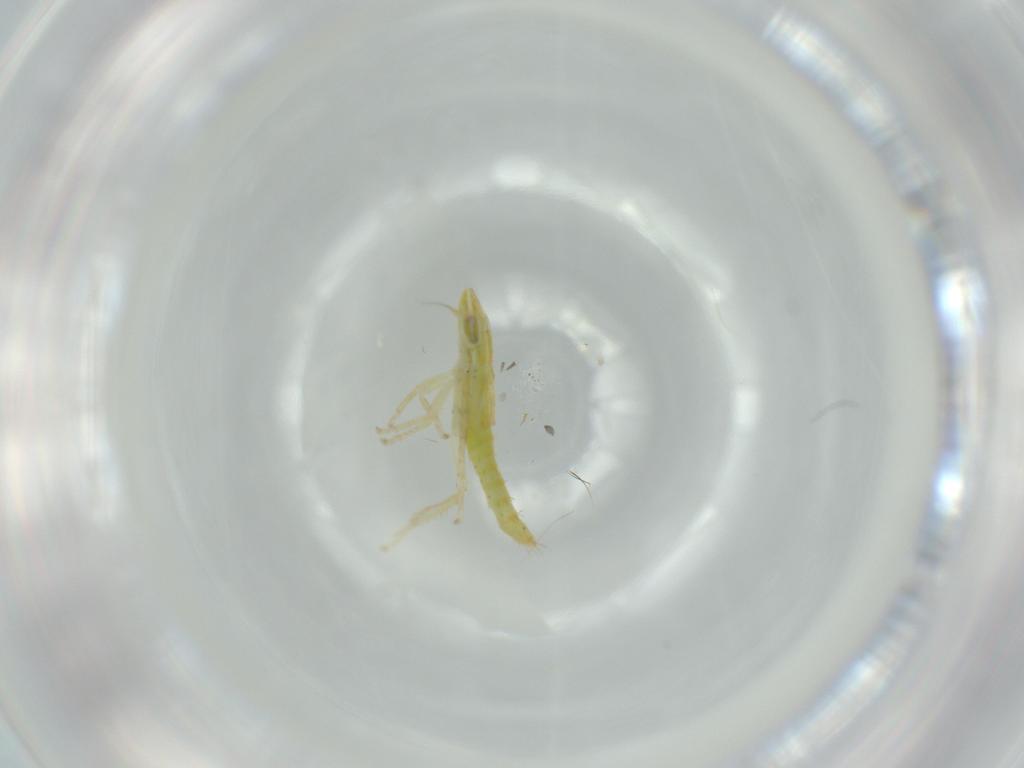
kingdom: Animalia
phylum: Arthropoda
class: Insecta
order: Hemiptera
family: Cicadellidae
